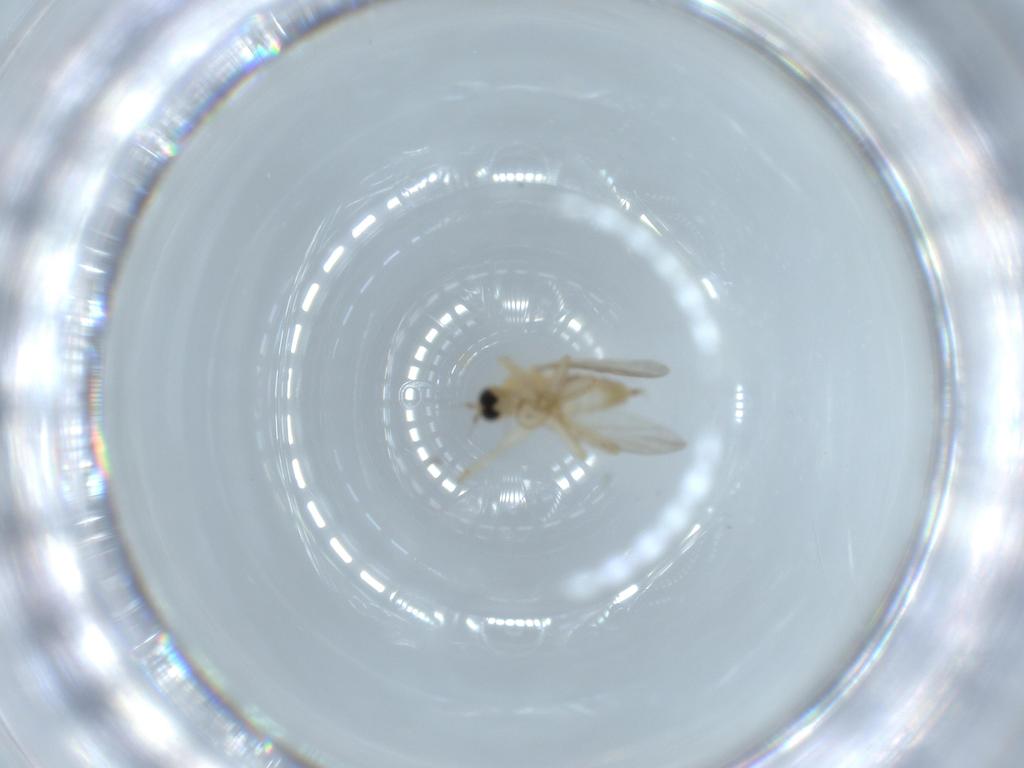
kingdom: Animalia
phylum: Arthropoda
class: Insecta
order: Diptera
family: Hybotidae
